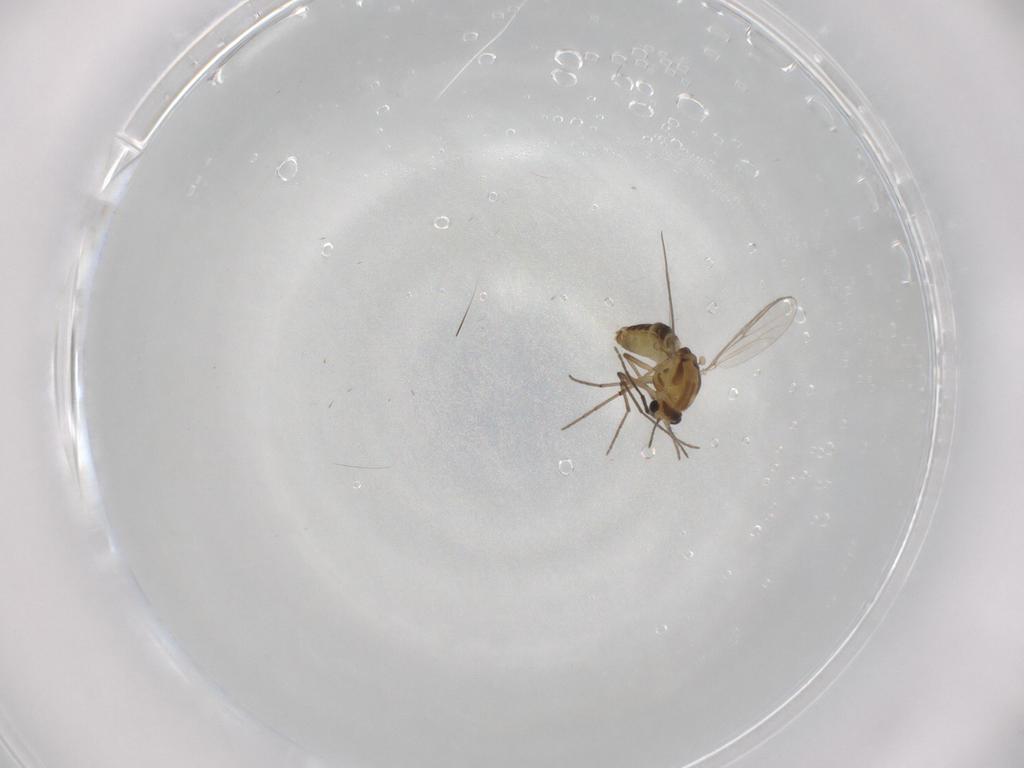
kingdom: Animalia
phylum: Arthropoda
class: Insecta
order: Diptera
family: Chironomidae
